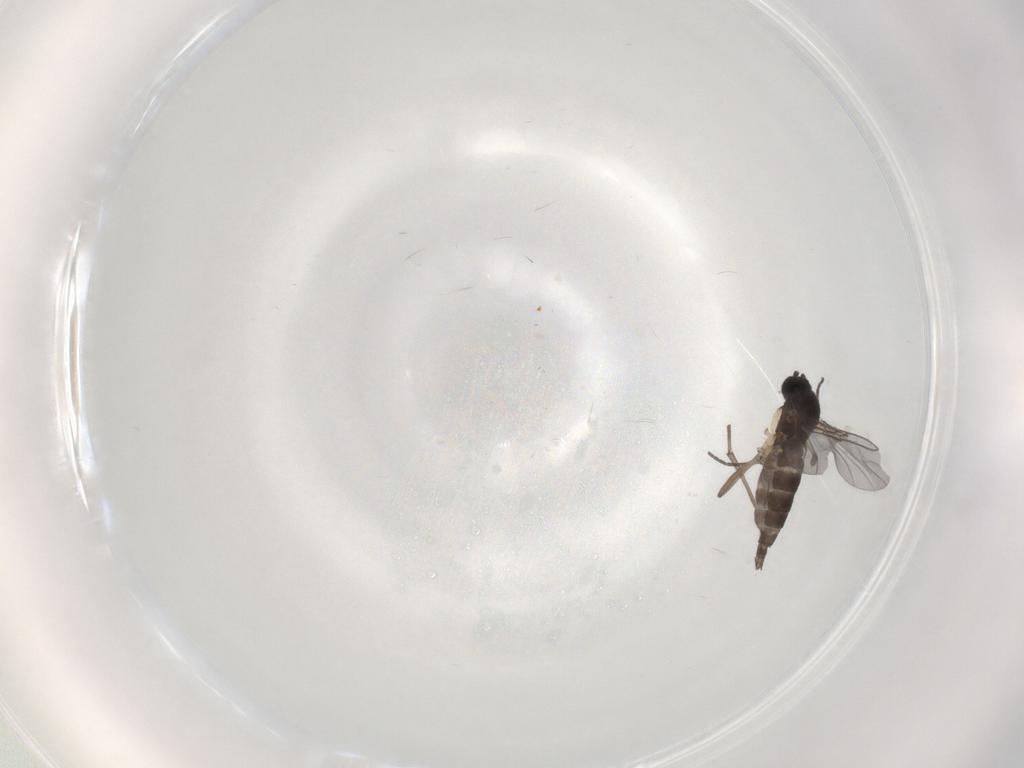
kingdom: Animalia
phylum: Arthropoda
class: Insecta
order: Diptera
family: Sciaridae
